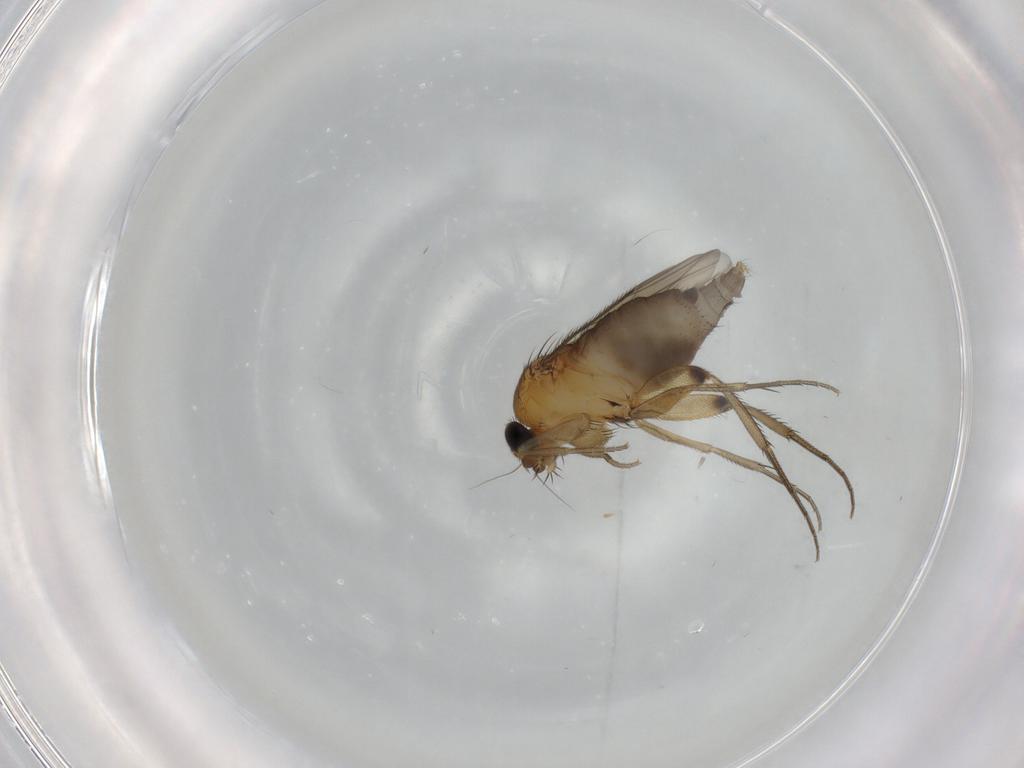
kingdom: Animalia
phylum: Arthropoda
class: Insecta
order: Diptera
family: Phoridae
